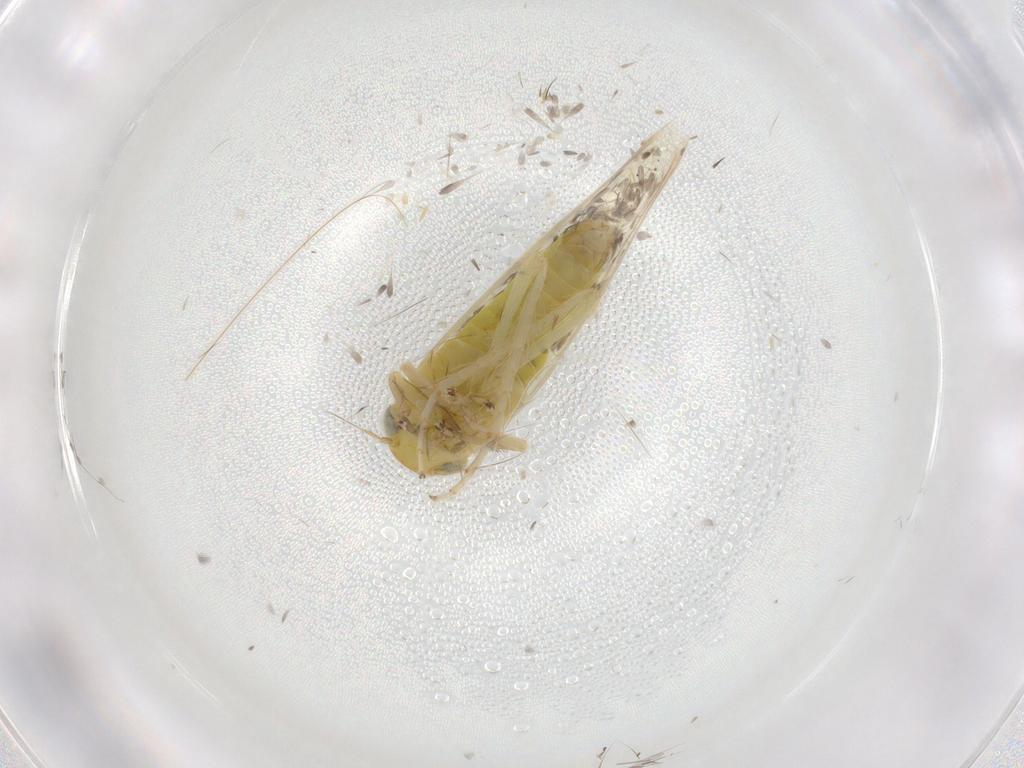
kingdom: Animalia
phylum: Arthropoda
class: Insecta
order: Hemiptera
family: Cicadellidae
